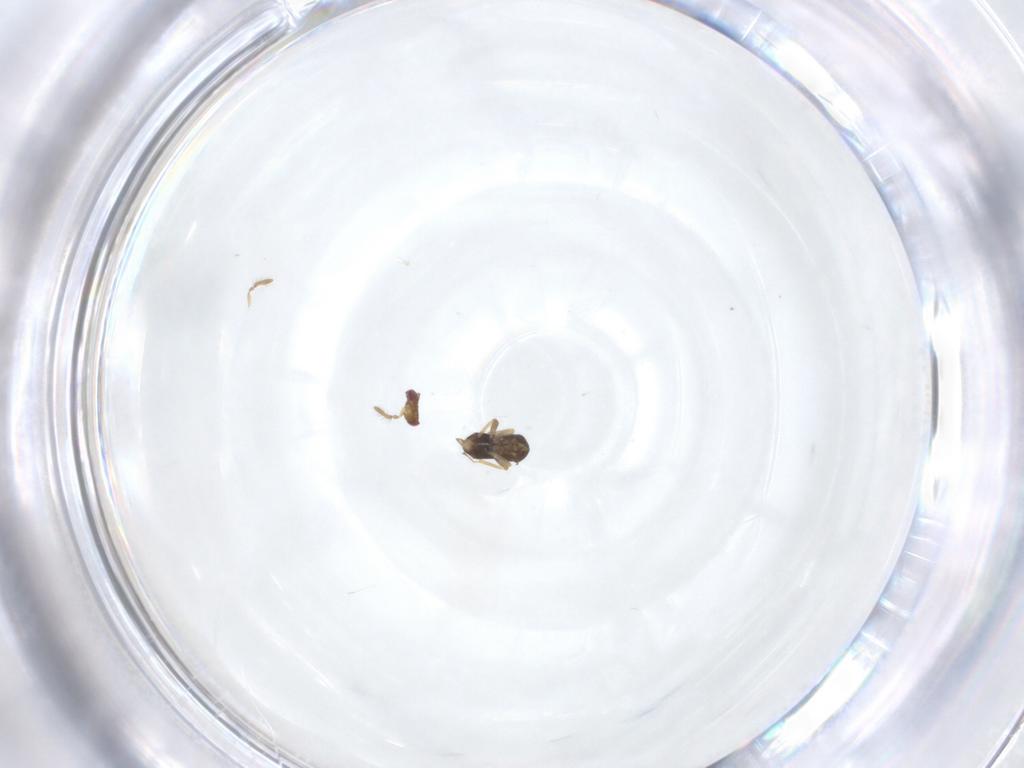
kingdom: Animalia
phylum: Arthropoda
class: Insecta
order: Hymenoptera
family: Trichogrammatidae
